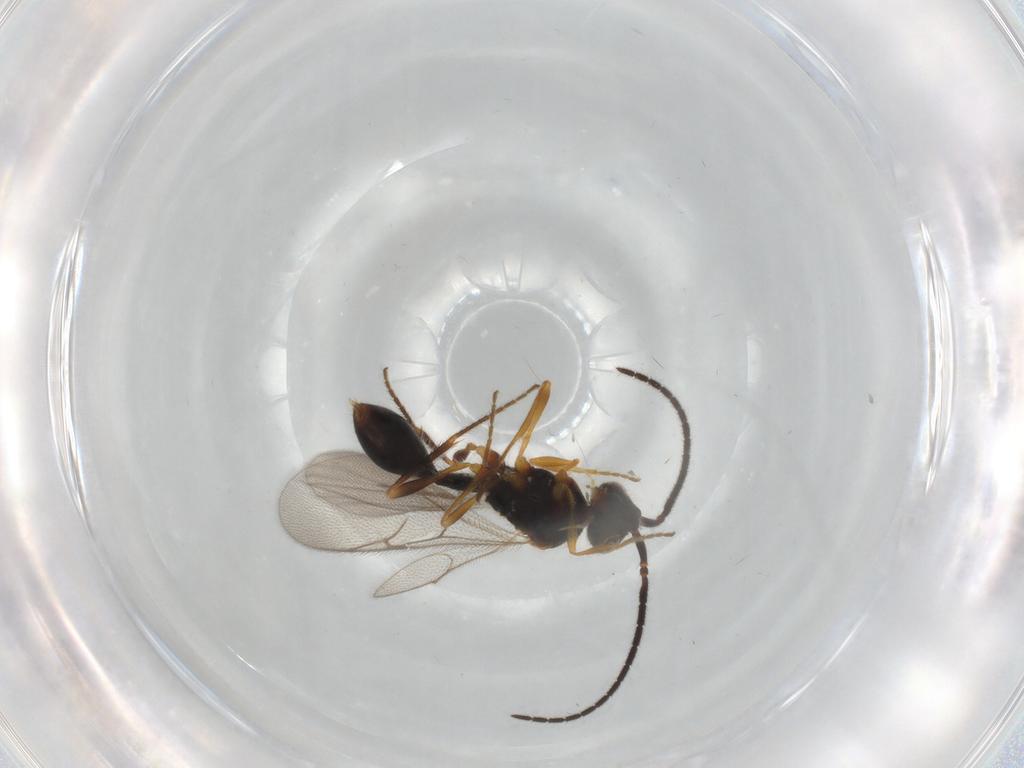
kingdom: Animalia
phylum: Arthropoda
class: Insecta
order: Hymenoptera
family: Diapriidae
